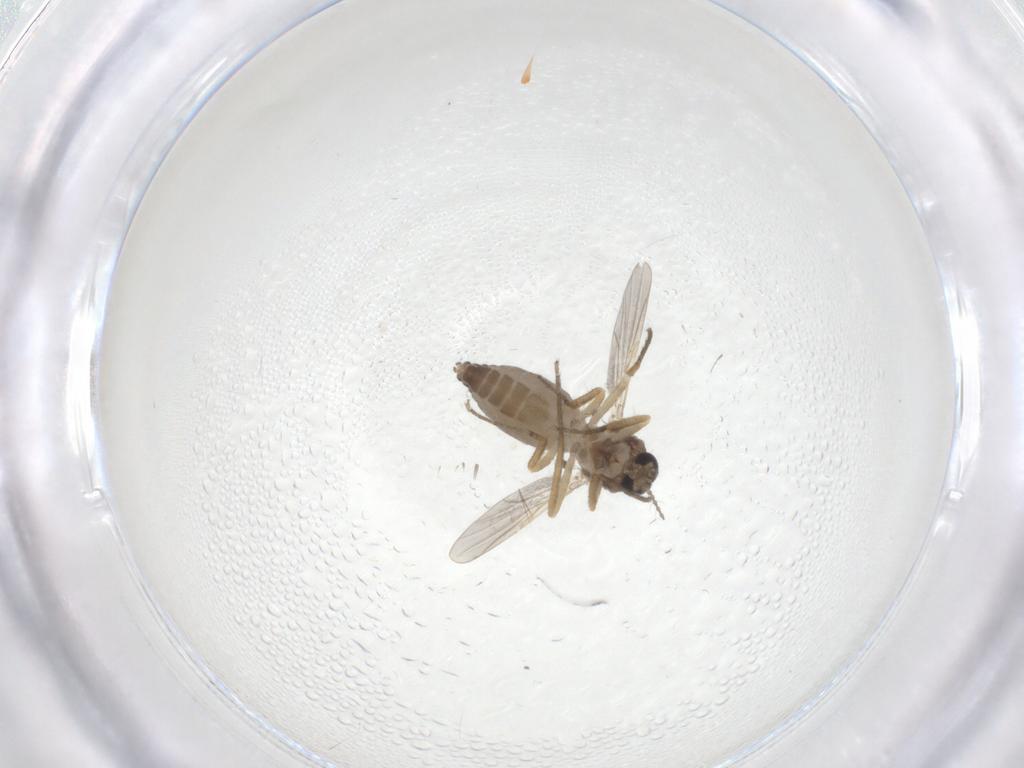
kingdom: Animalia
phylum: Arthropoda
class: Insecta
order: Diptera
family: Ceratopogonidae
